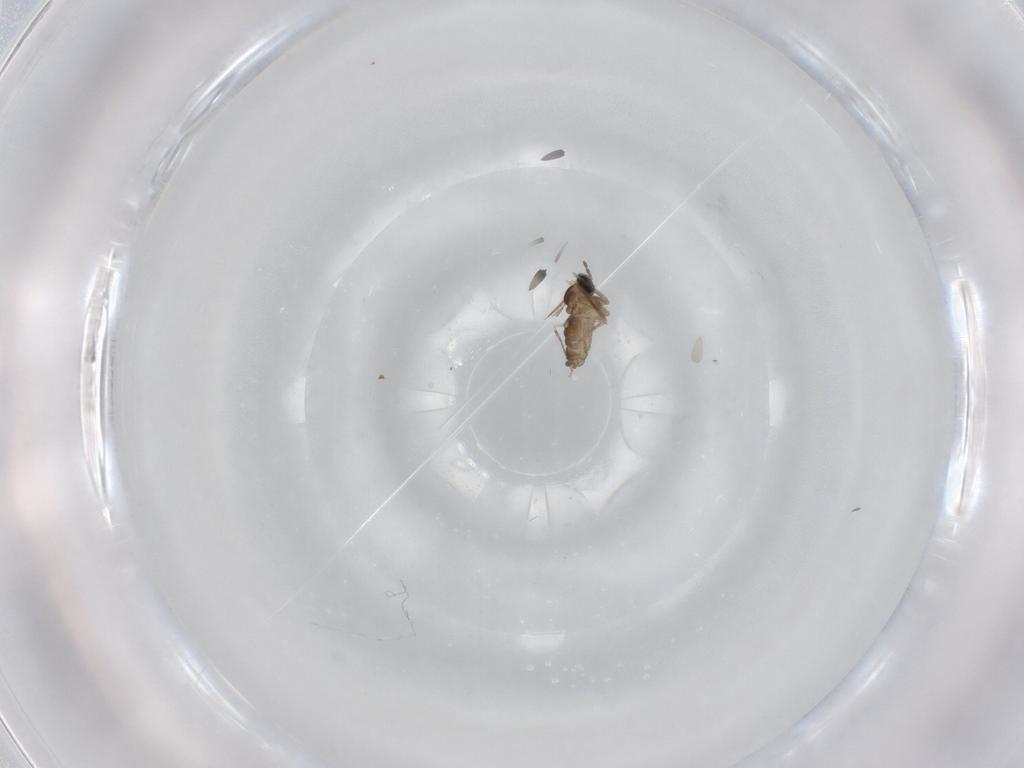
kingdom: Animalia
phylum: Arthropoda
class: Insecta
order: Diptera
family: Cecidomyiidae
